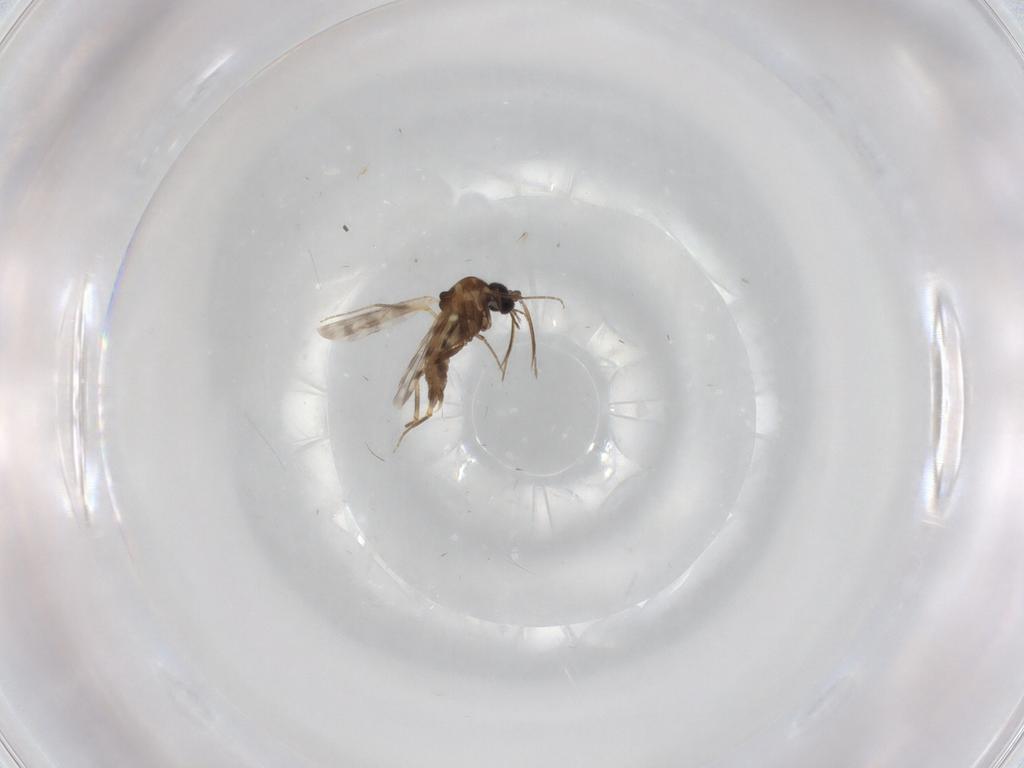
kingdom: Animalia
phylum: Arthropoda
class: Insecta
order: Diptera
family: Ceratopogonidae
